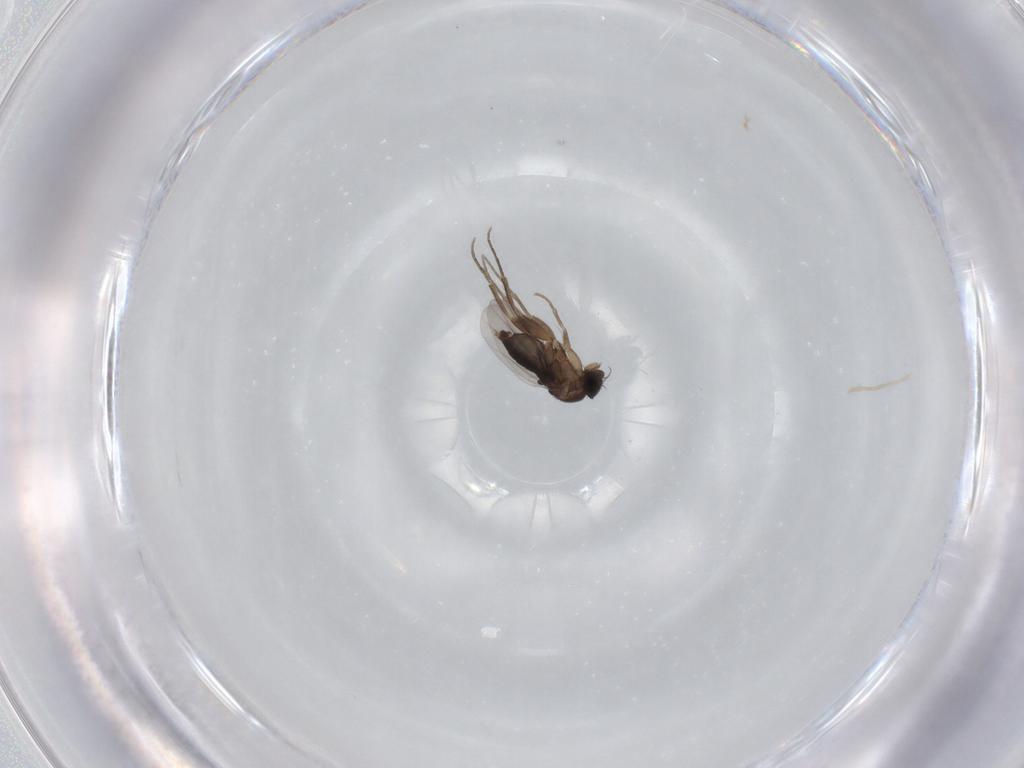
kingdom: Animalia
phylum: Arthropoda
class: Insecta
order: Diptera
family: Phoridae
